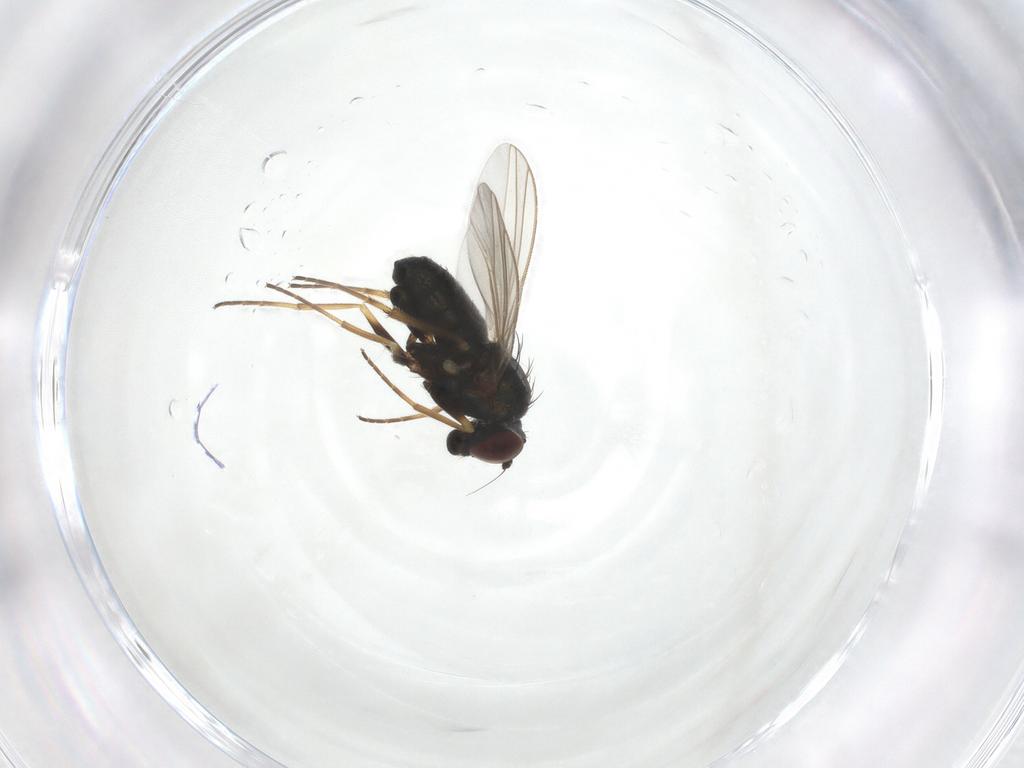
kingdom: Animalia
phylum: Arthropoda
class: Insecta
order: Diptera
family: Dolichopodidae
